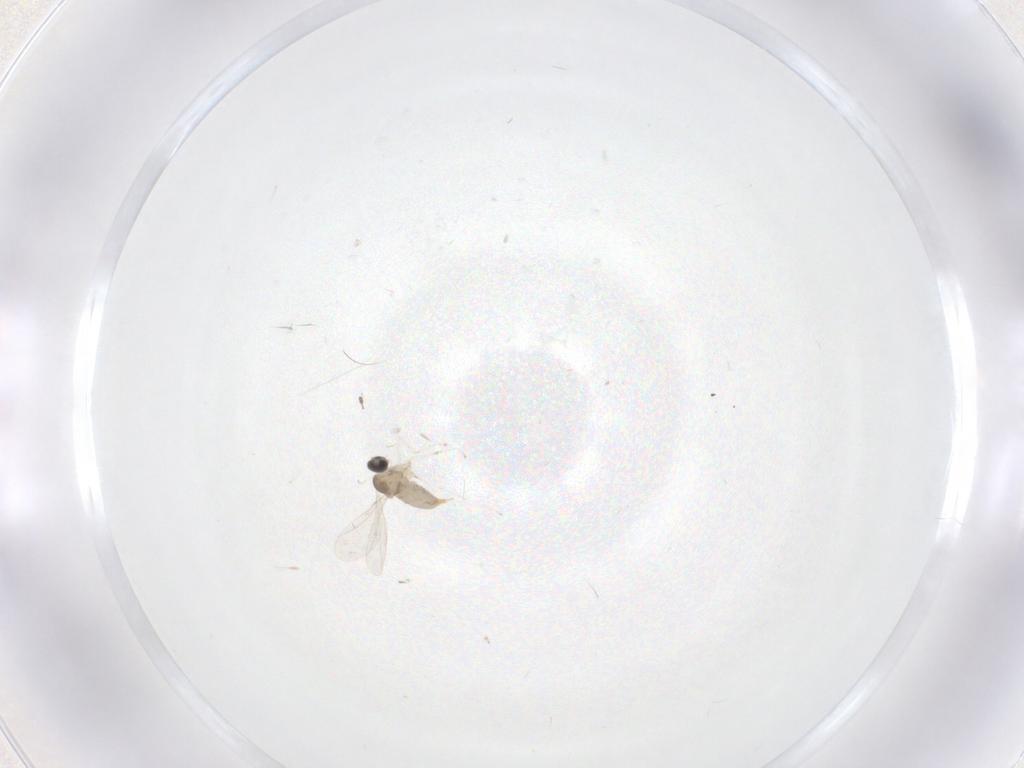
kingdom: Animalia
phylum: Arthropoda
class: Insecta
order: Diptera
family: Cecidomyiidae
